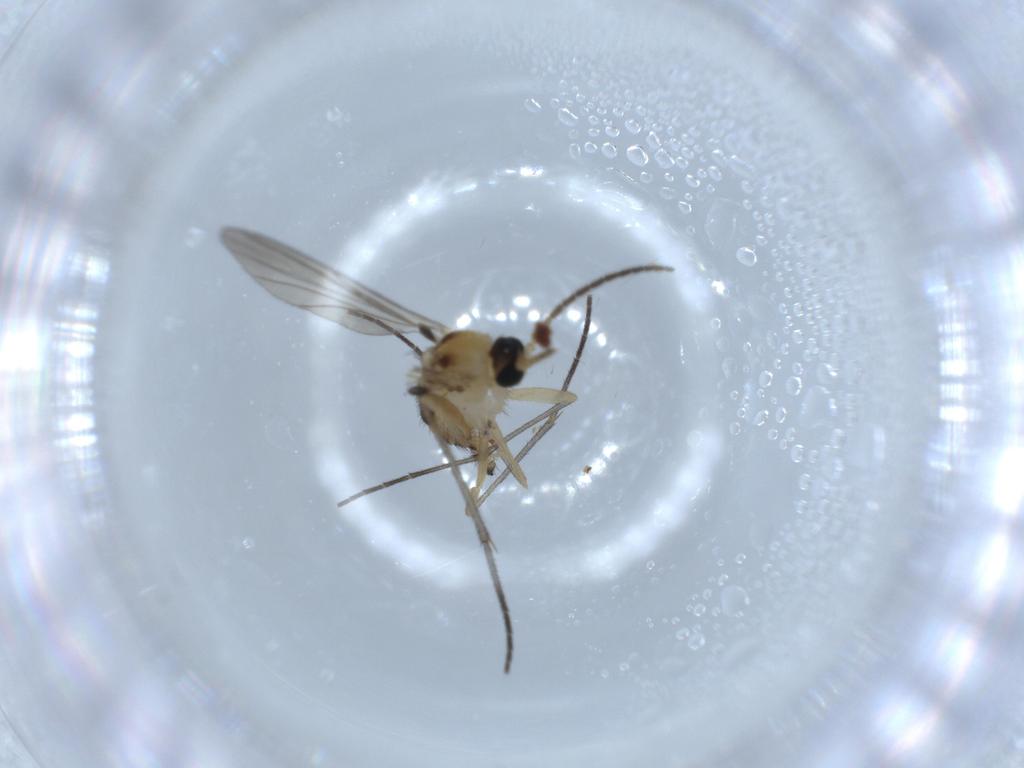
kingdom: Animalia
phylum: Arthropoda
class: Insecta
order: Diptera
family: Sciaridae
